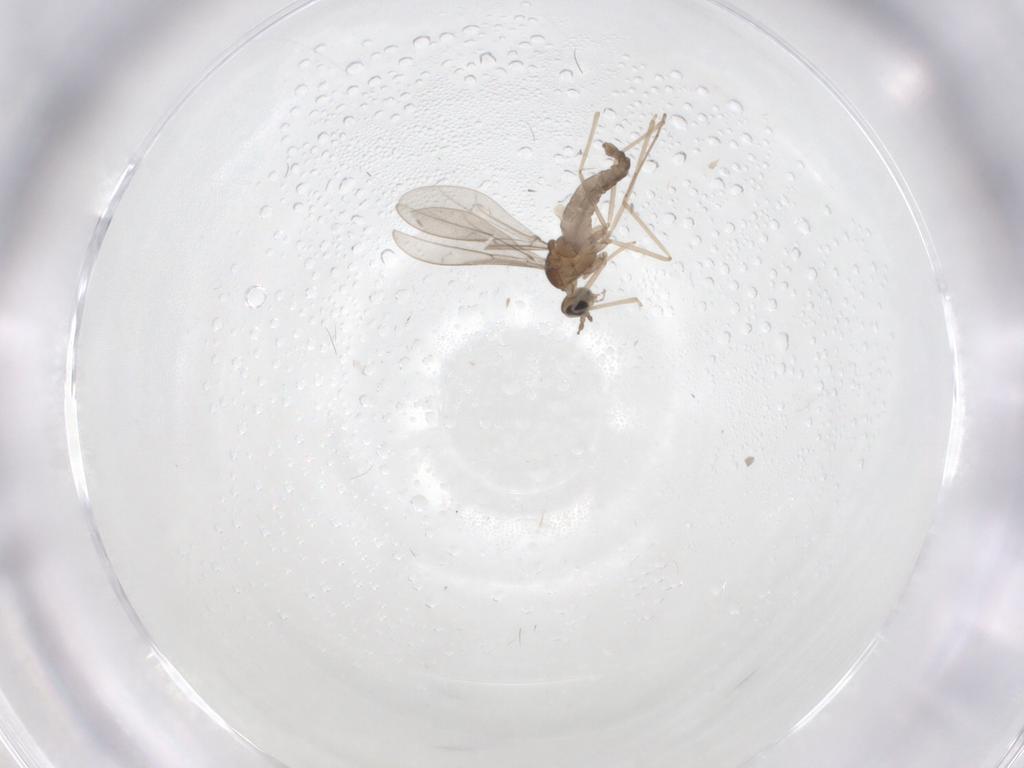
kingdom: Animalia
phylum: Arthropoda
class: Insecta
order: Diptera
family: Cecidomyiidae
